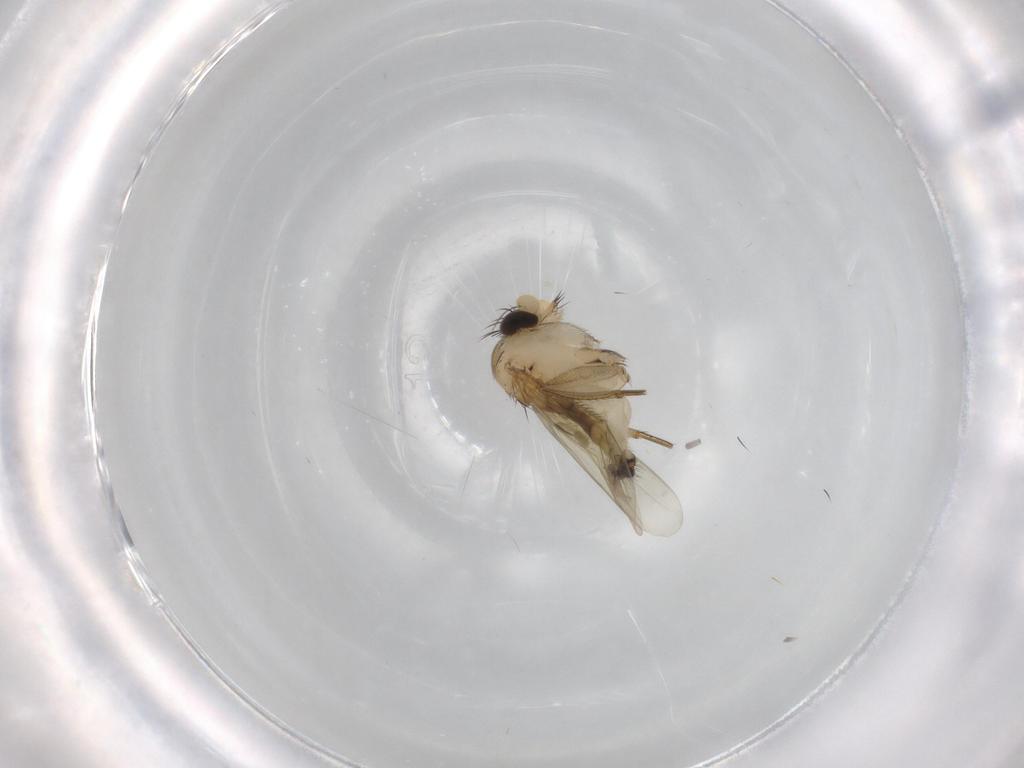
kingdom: Animalia
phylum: Arthropoda
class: Insecta
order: Diptera
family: Phoridae
